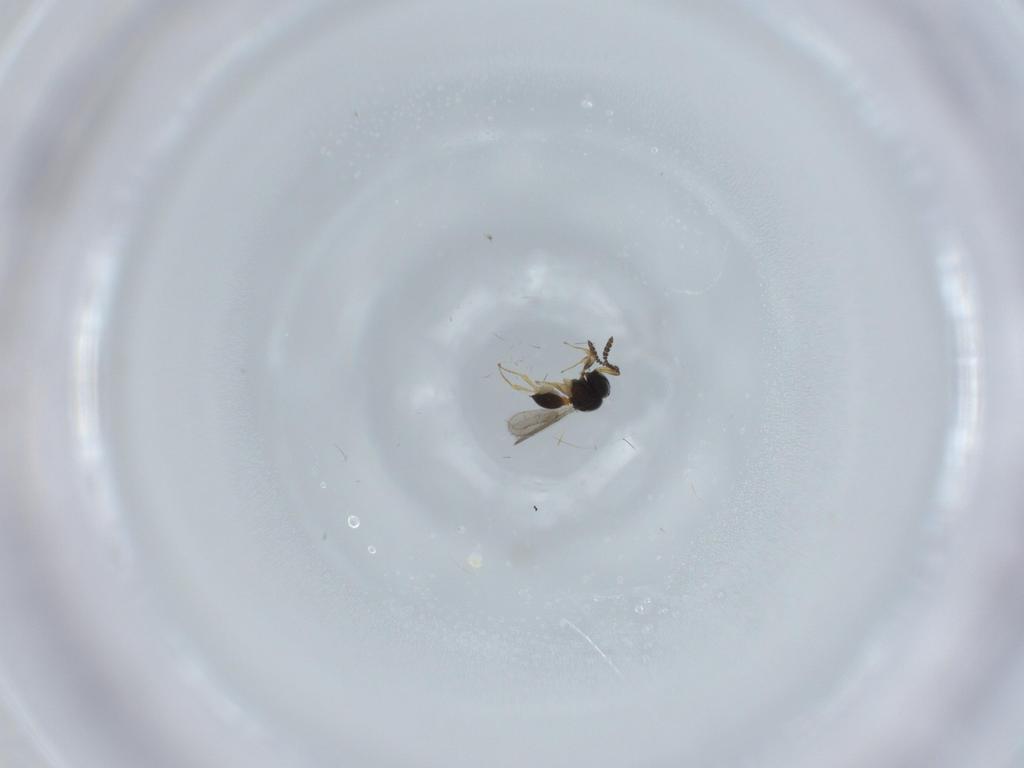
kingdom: Animalia
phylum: Arthropoda
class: Insecta
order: Hymenoptera
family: Scelionidae
